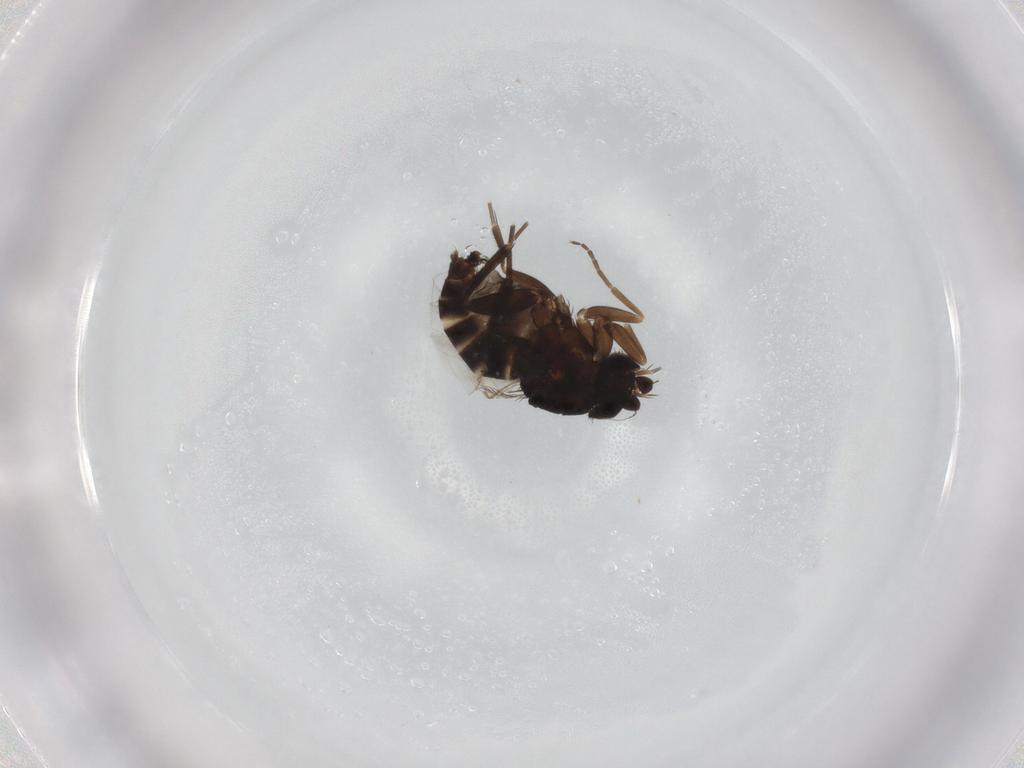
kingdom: Animalia
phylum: Arthropoda
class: Insecta
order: Diptera
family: Phoridae
